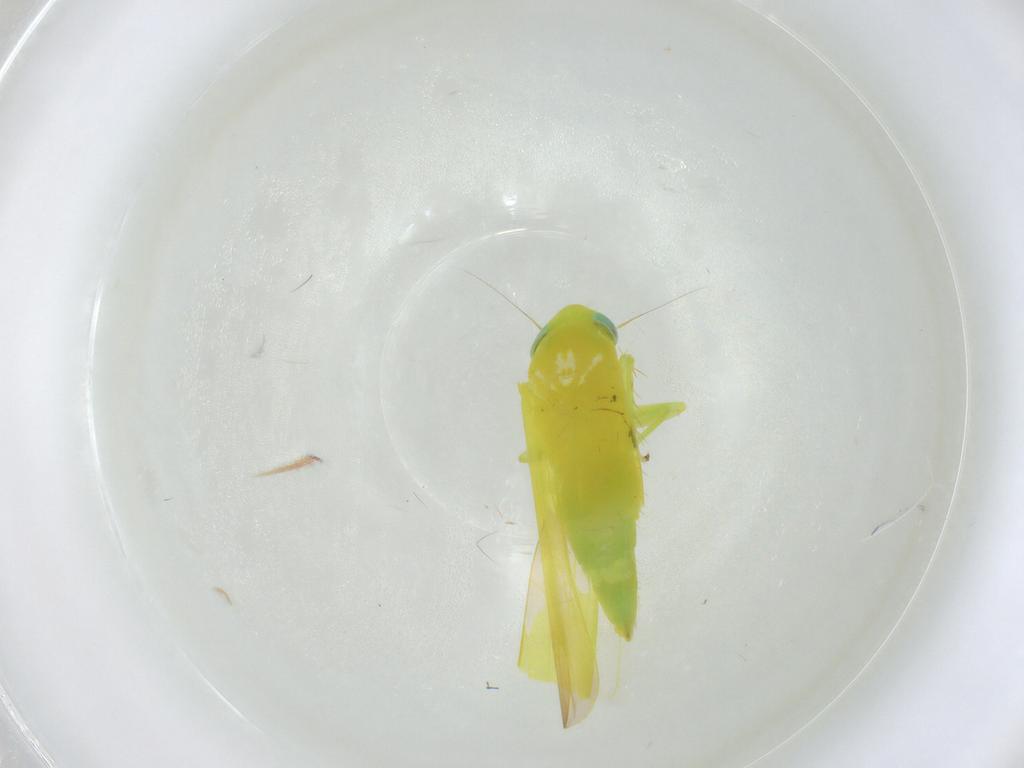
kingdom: Animalia
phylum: Arthropoda
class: Insecta
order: Hemiptera
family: Cicadellidae
